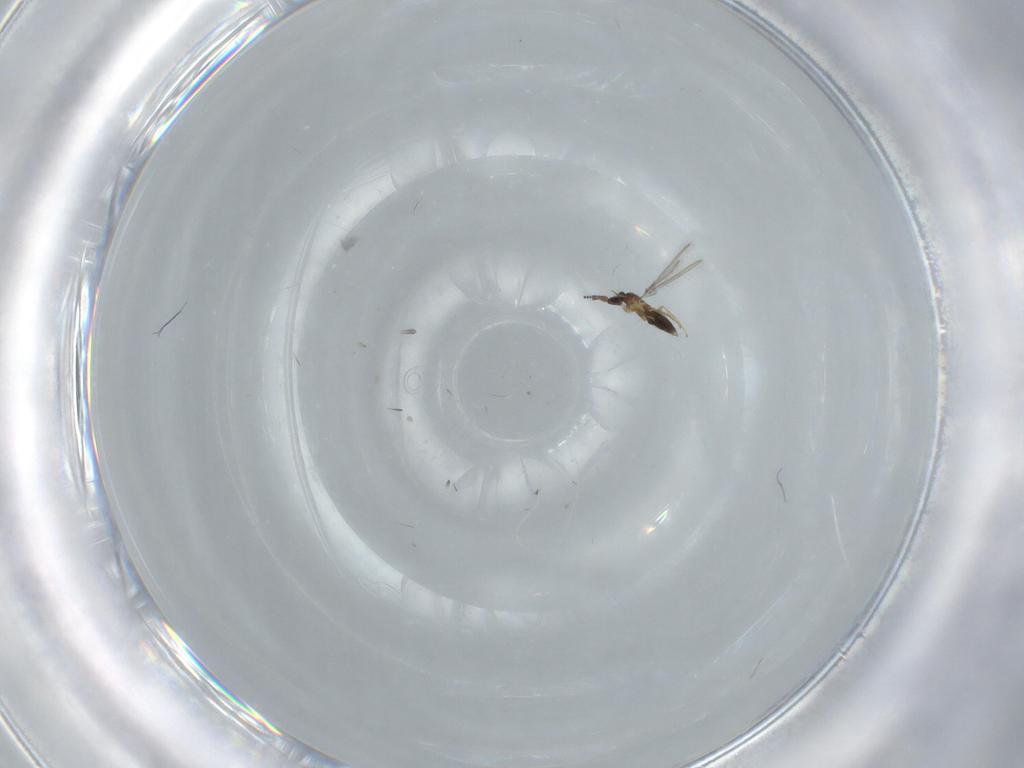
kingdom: Animalia
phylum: Arthropoda
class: Insecta
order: Hymenoptera
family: Mymaridae
